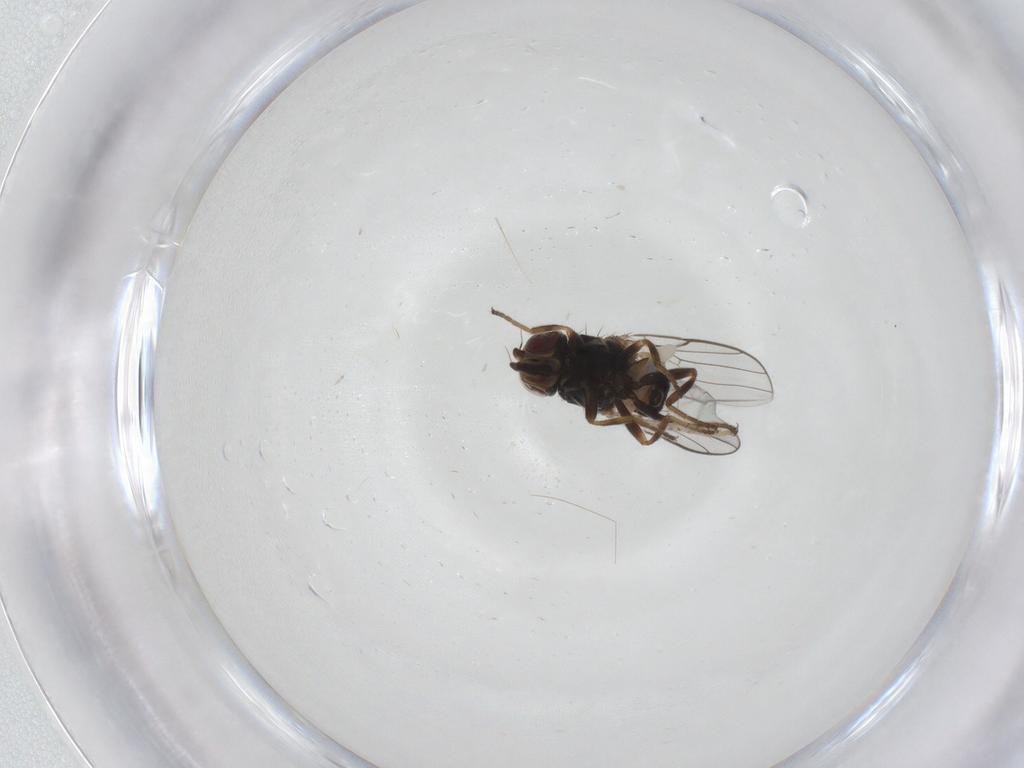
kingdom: Animalia
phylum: Arthropoda
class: Insecta
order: Diptera
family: Chloropidae
